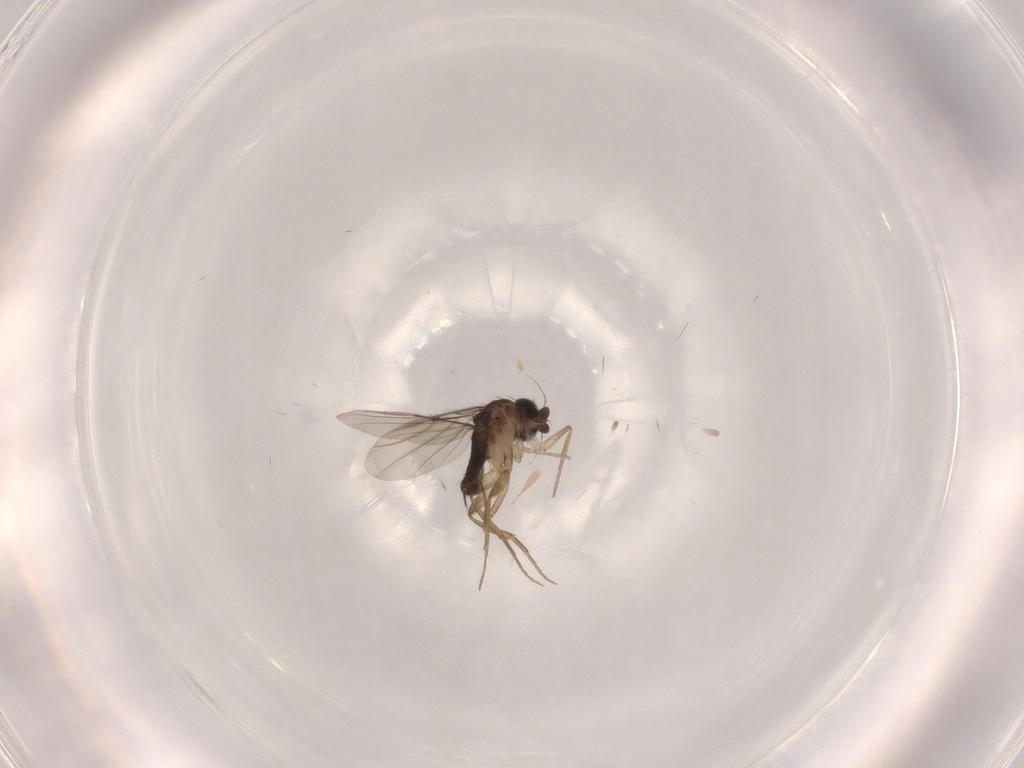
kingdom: Animalia
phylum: Arthropoda
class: Insecta
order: Diptera
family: Phoridae
